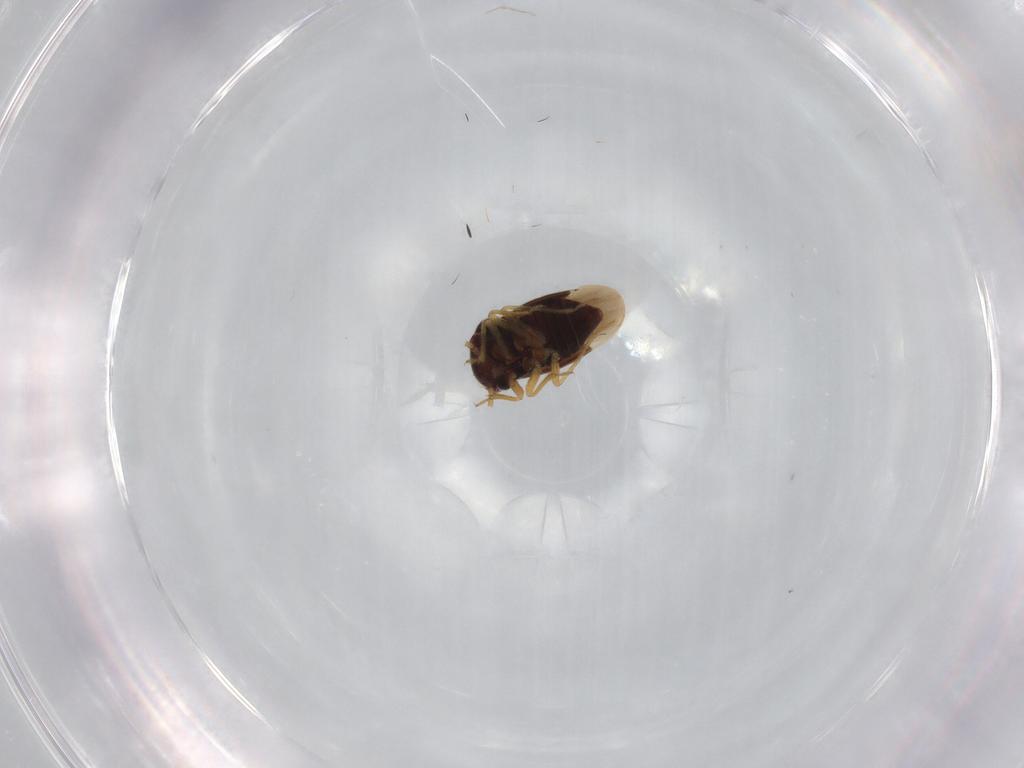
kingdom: Animalia
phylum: Arthropoda
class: Insecta
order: Hemiptera
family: Schizopteridae
